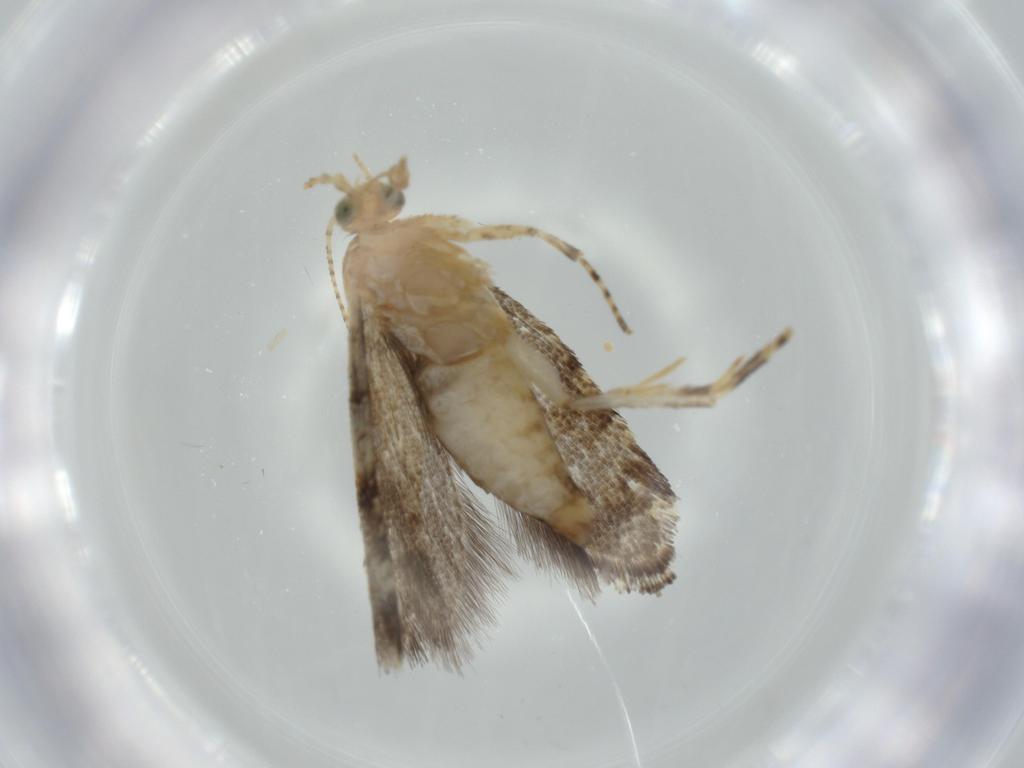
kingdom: Animalia
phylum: Arthropoda
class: Insecta
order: Lepidoptera
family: Glyphipterigidae
